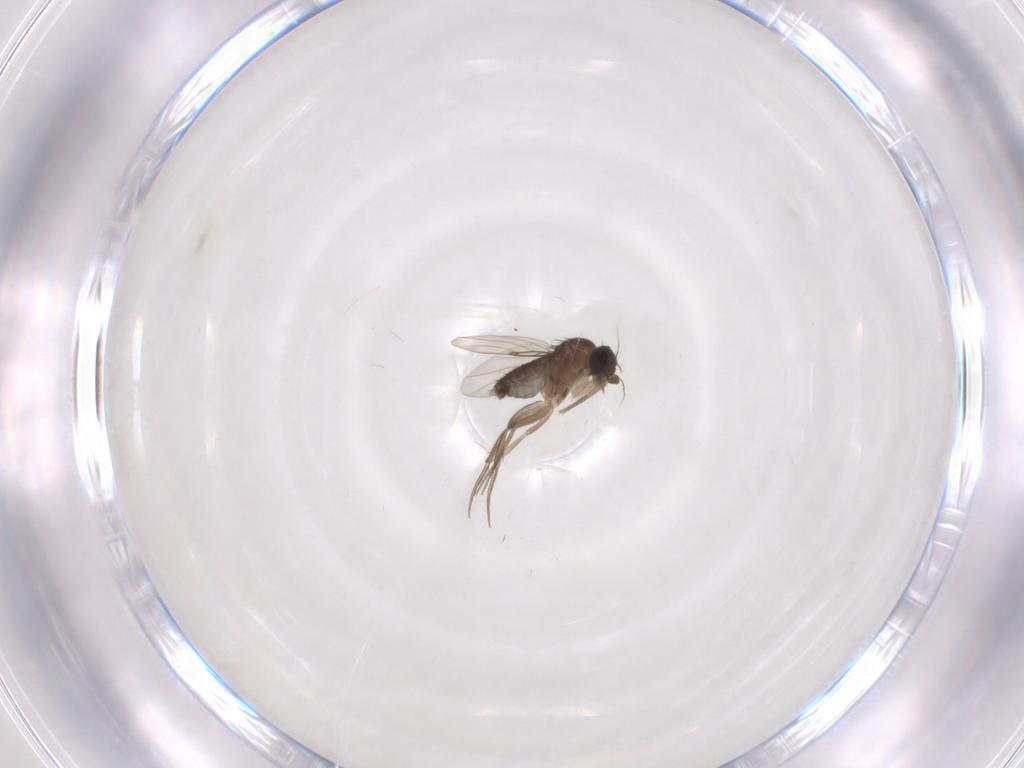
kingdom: Animalia
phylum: Arthropoda
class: Insecta
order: Diptera
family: Phoridae
